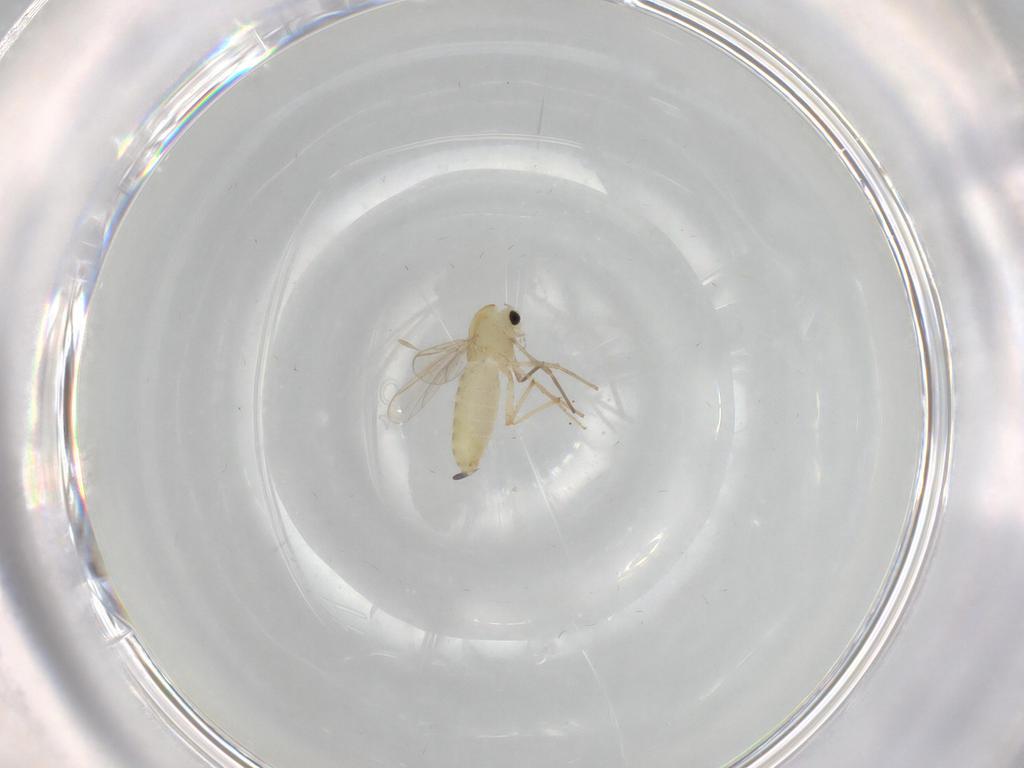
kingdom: Animalia
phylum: Arthropoda
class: Insecta
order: Diptera
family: Chironomidae
